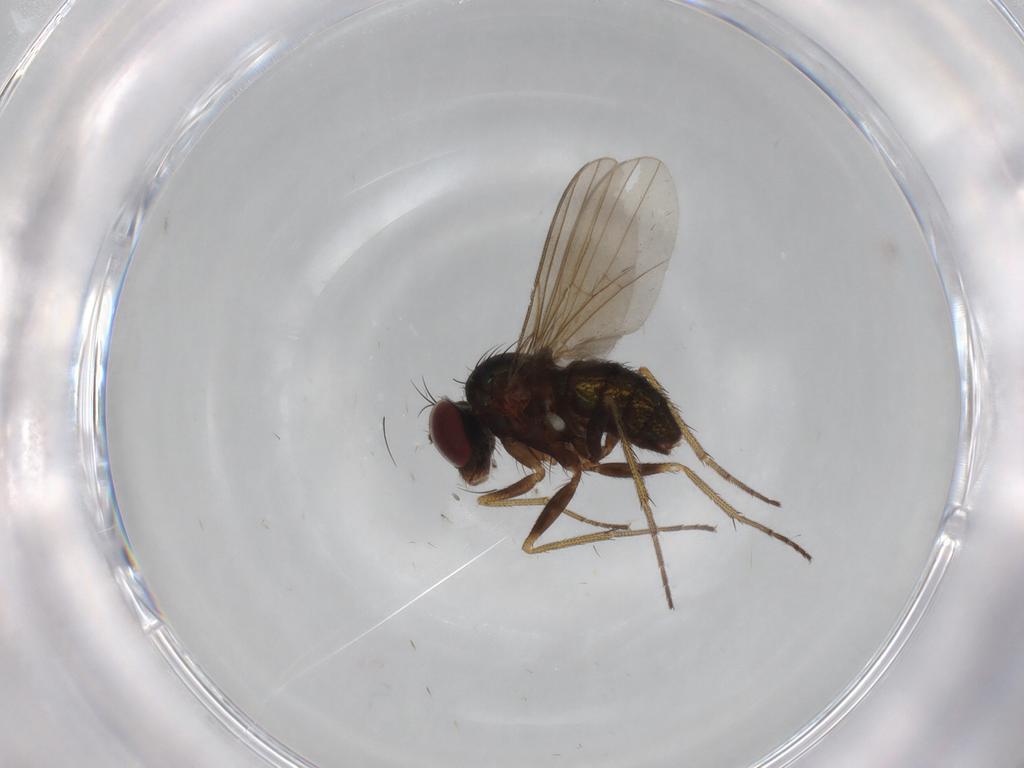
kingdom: Animalia
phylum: Arthropoda
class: Insecta
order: Diptera
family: Dolichopodidae
